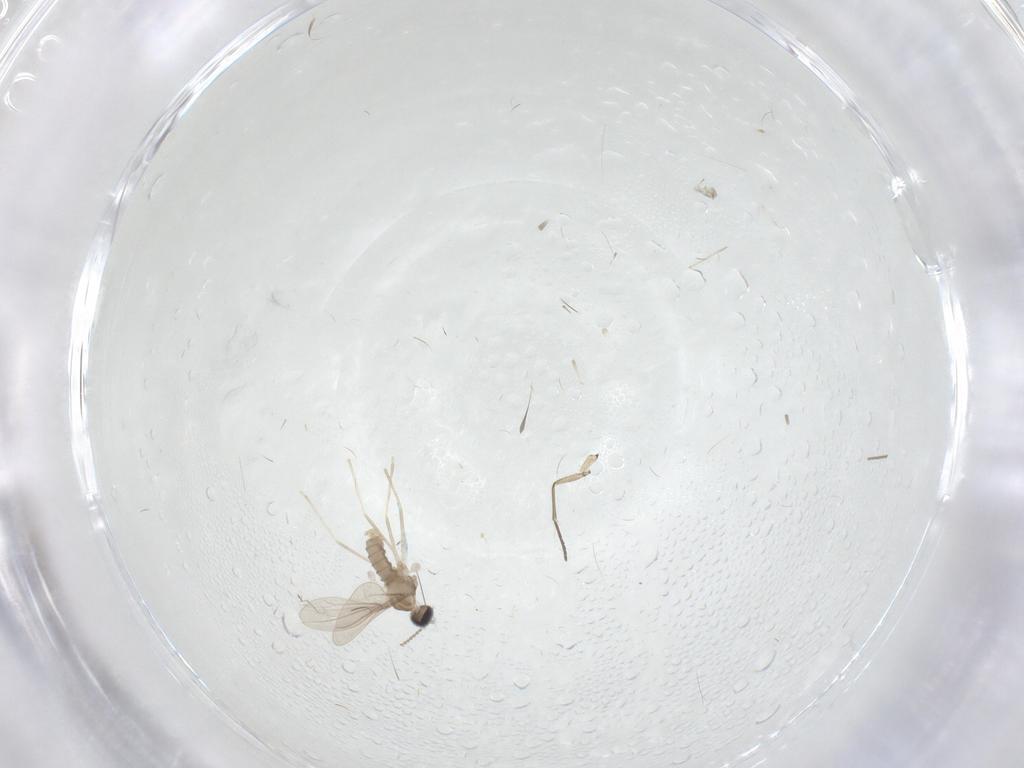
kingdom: Animalia
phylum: Arthropoda
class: Insecta
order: Diptera
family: Cecidomyiidae
